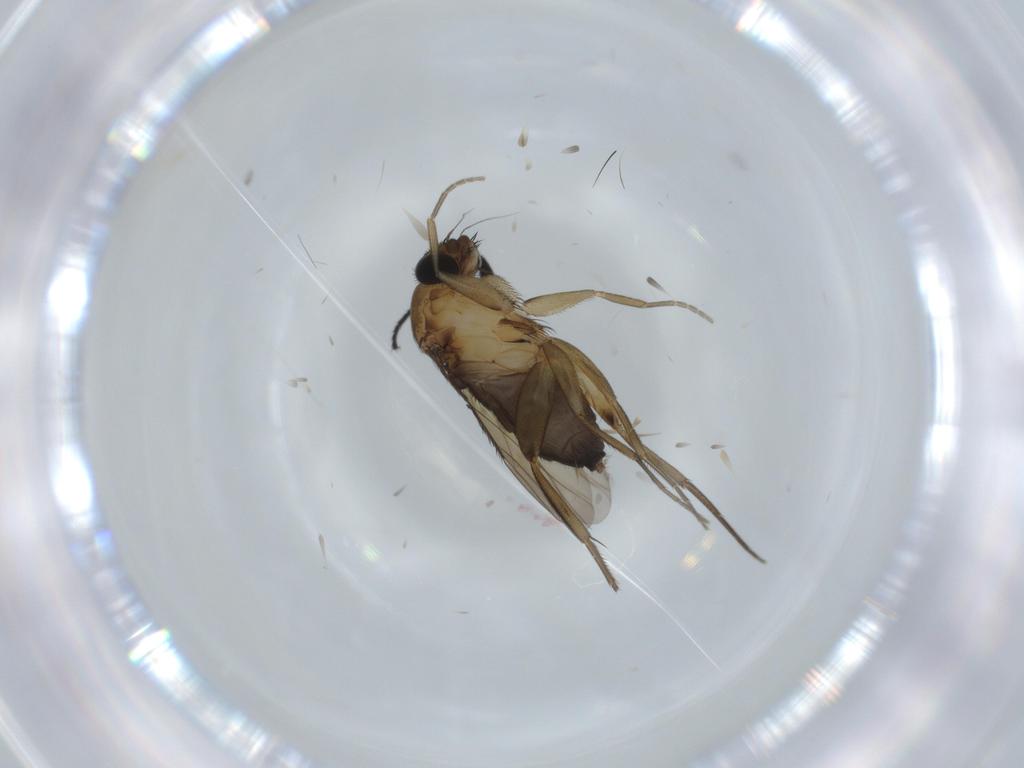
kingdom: Animalia
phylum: Arthropoda
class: Insecta
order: Diptera
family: Phoridae
